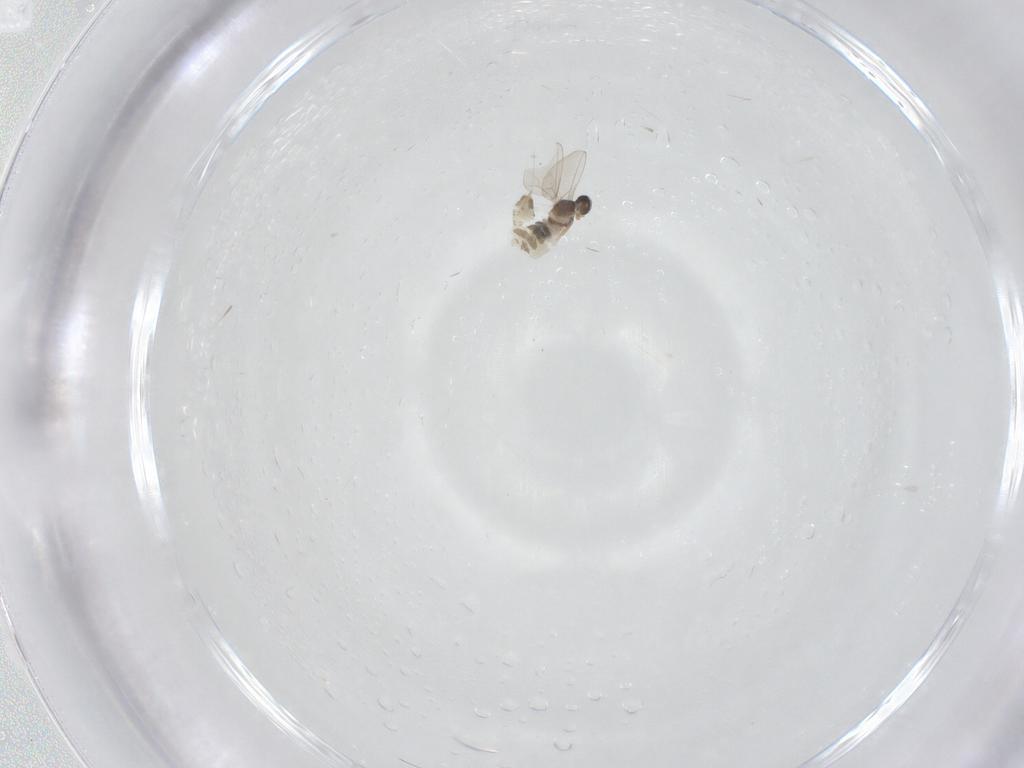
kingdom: Animalia
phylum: Arthropoda
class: Insecta
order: Diptera
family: Cecidomyiidae
